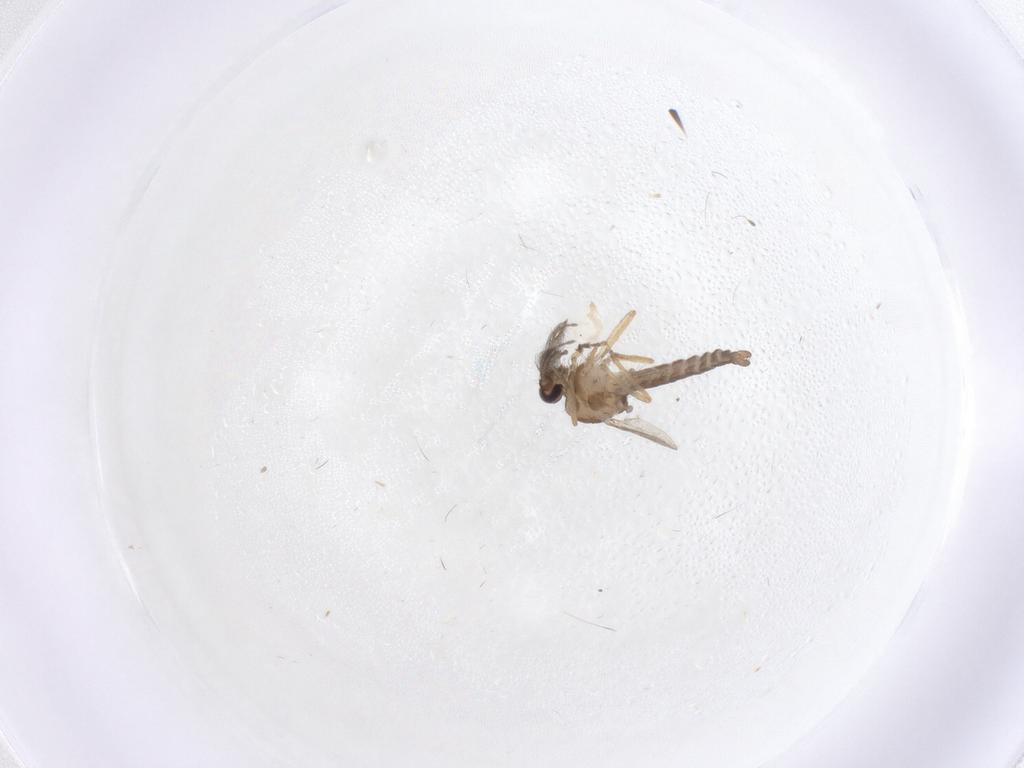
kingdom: Animalia
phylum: Arthropoda
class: Insecta
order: Diptera
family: Ceratopogonidae
